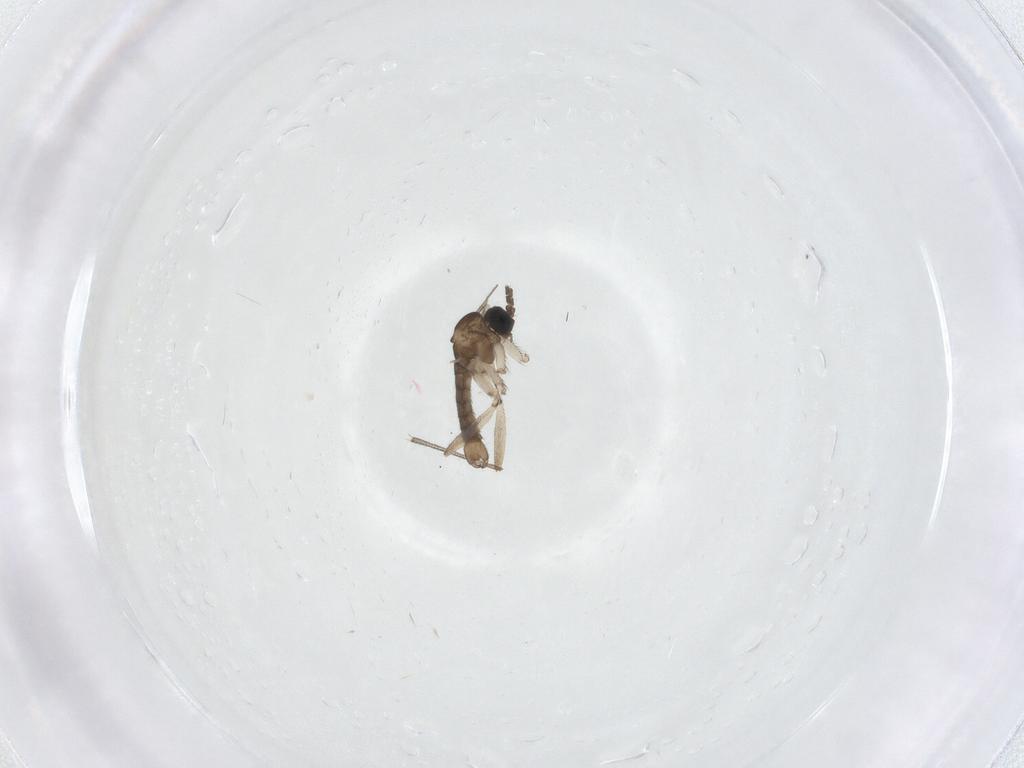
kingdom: Animalia
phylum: Arthropoda
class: Insecta
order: Diptera
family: Sciaridae
